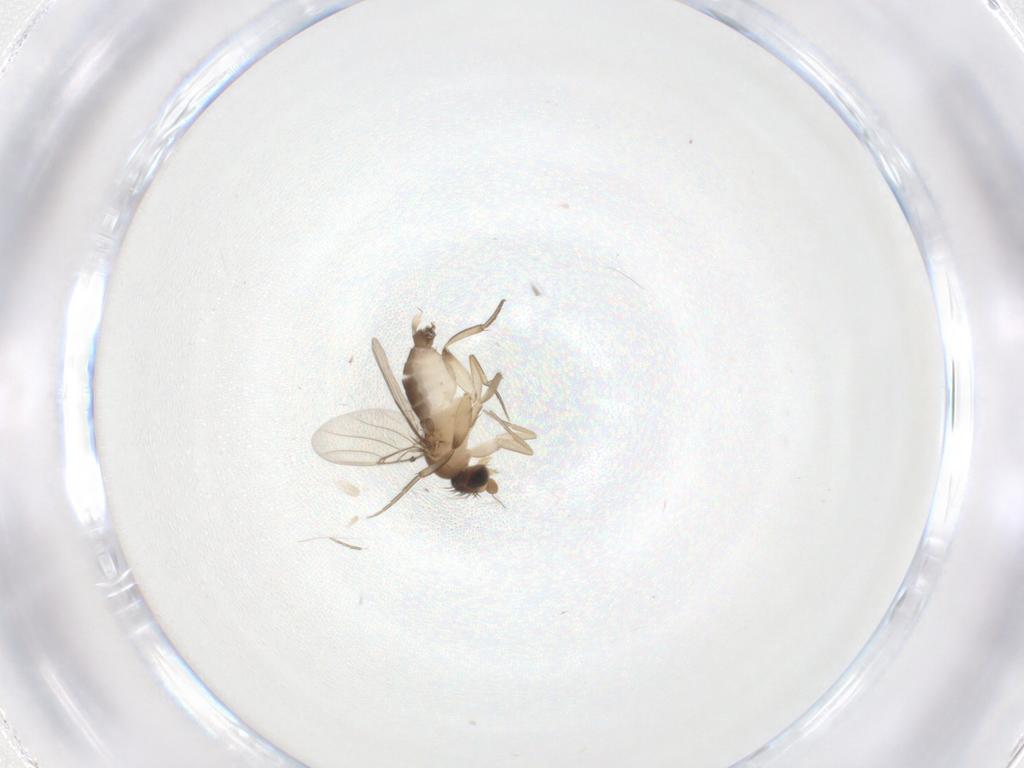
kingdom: Animalia
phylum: Arthropoda
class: Insecta
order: Diptera
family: Phoridae
